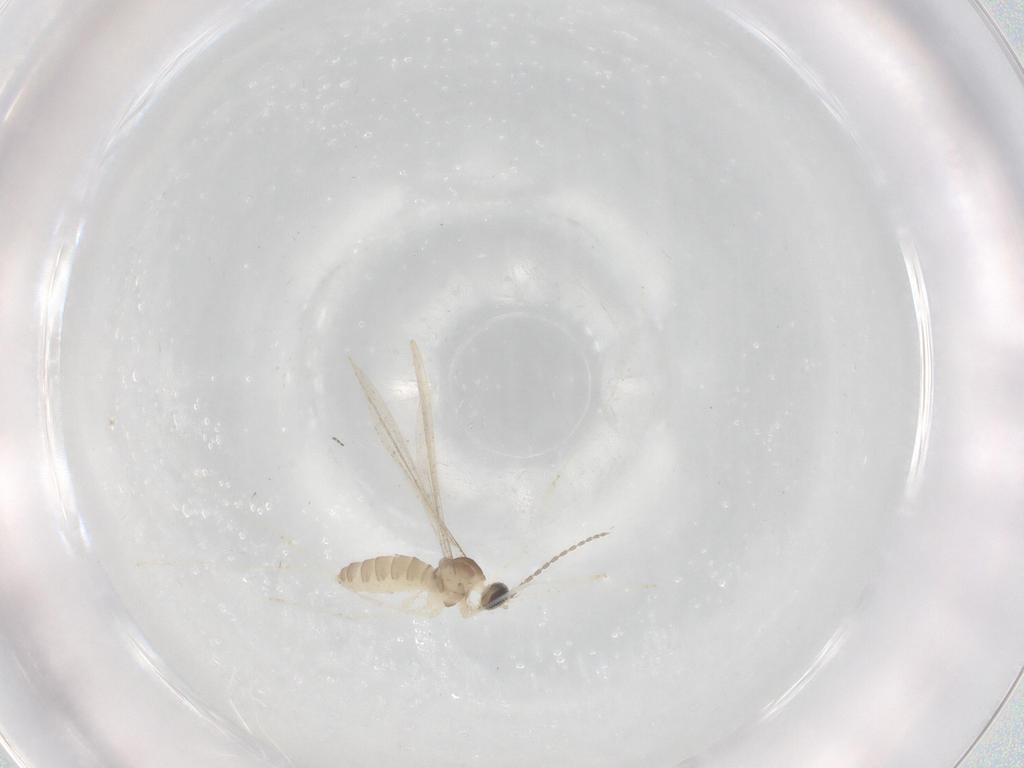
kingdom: Animalia
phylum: Arthropoda
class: Insecta
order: Diptera
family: Cecidomyiidae
